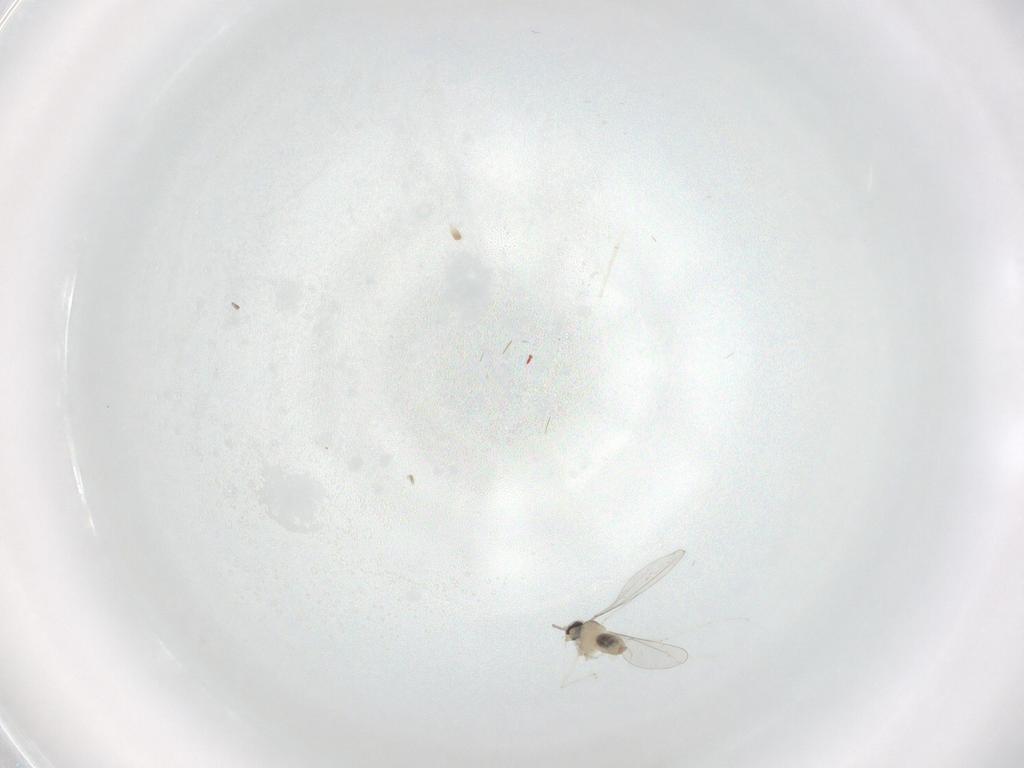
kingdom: Animalia
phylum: Arthropoda
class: Insecta
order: Diptera
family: Cecidomyiidae
